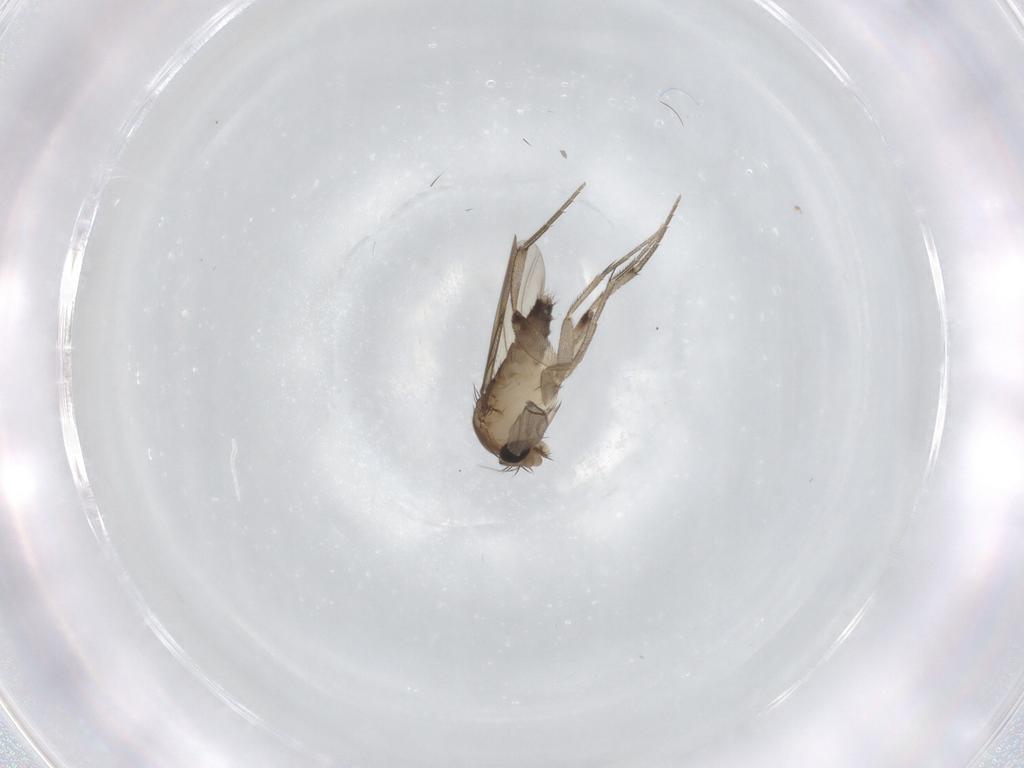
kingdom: Animalia
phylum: Arthropoda
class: Insecta
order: Diptera
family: Phoridae
